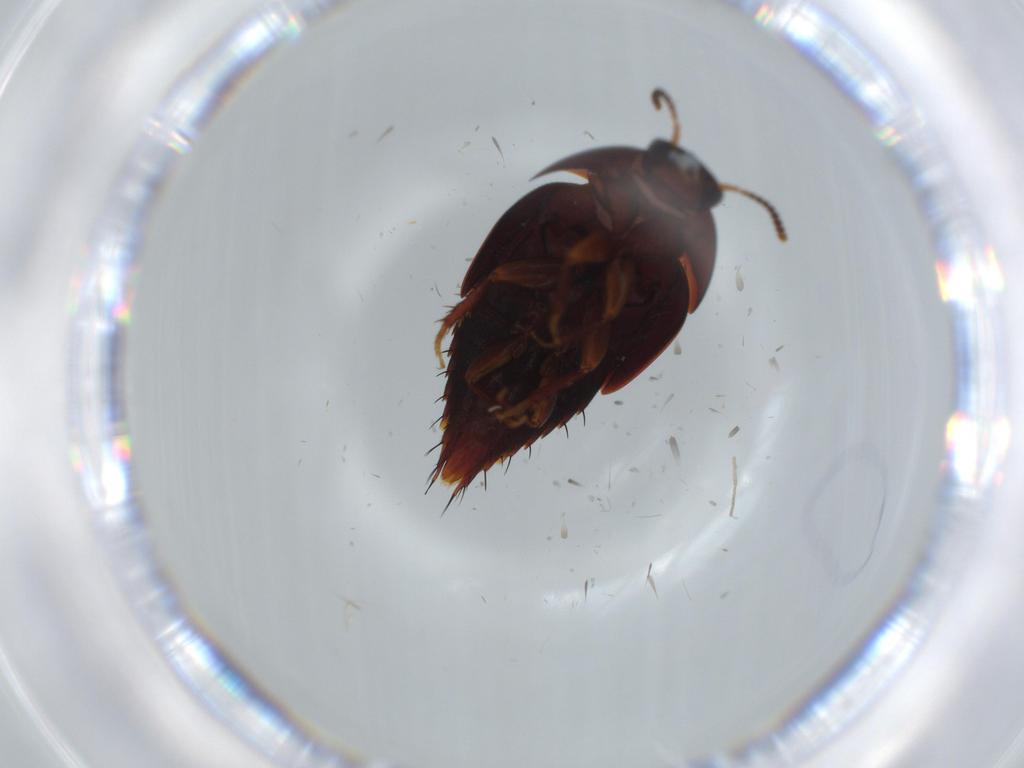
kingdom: Animalia
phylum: Arthropoda
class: Insecta
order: Coleoptera
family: Staphylinidae
